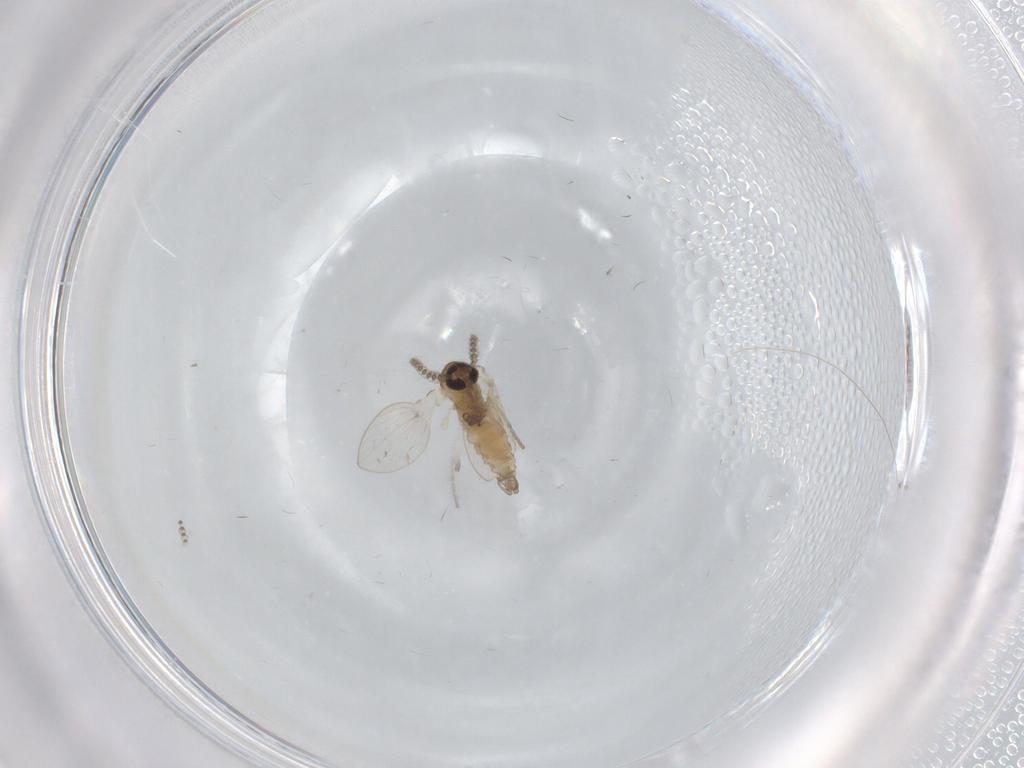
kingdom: Animalia
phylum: Arthropoda
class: Insecta
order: Diptera
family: Psychodidae
